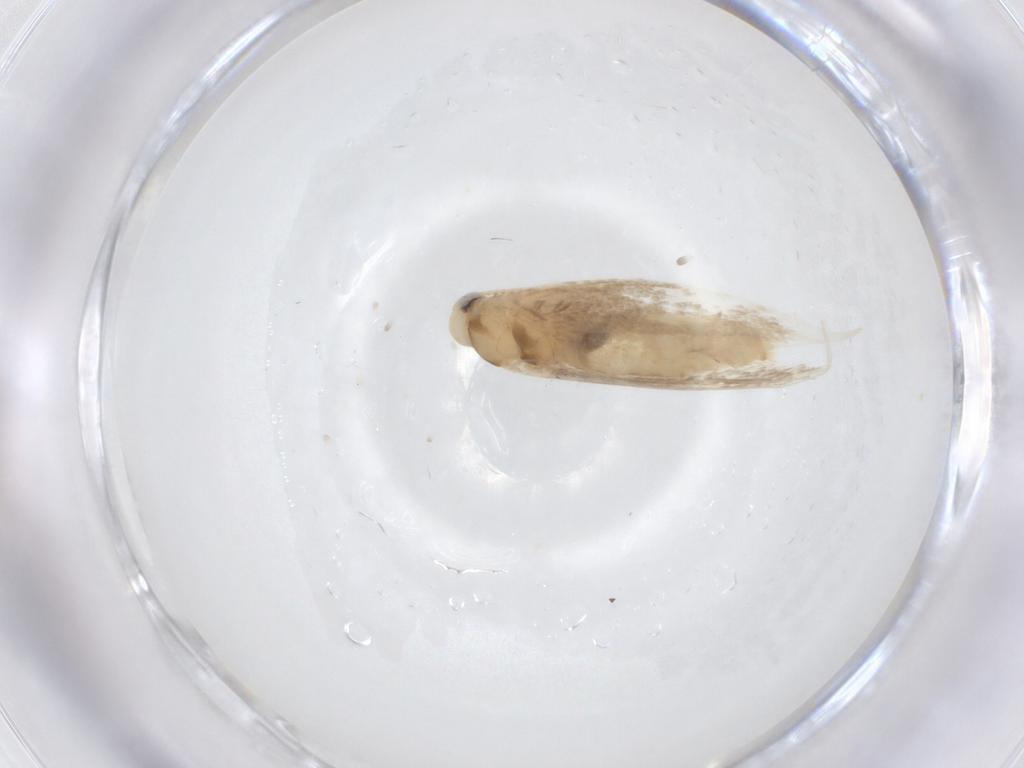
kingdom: Animalia
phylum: Arthropoda
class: Insecta
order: Lepidoptera
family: Gracillariidae
